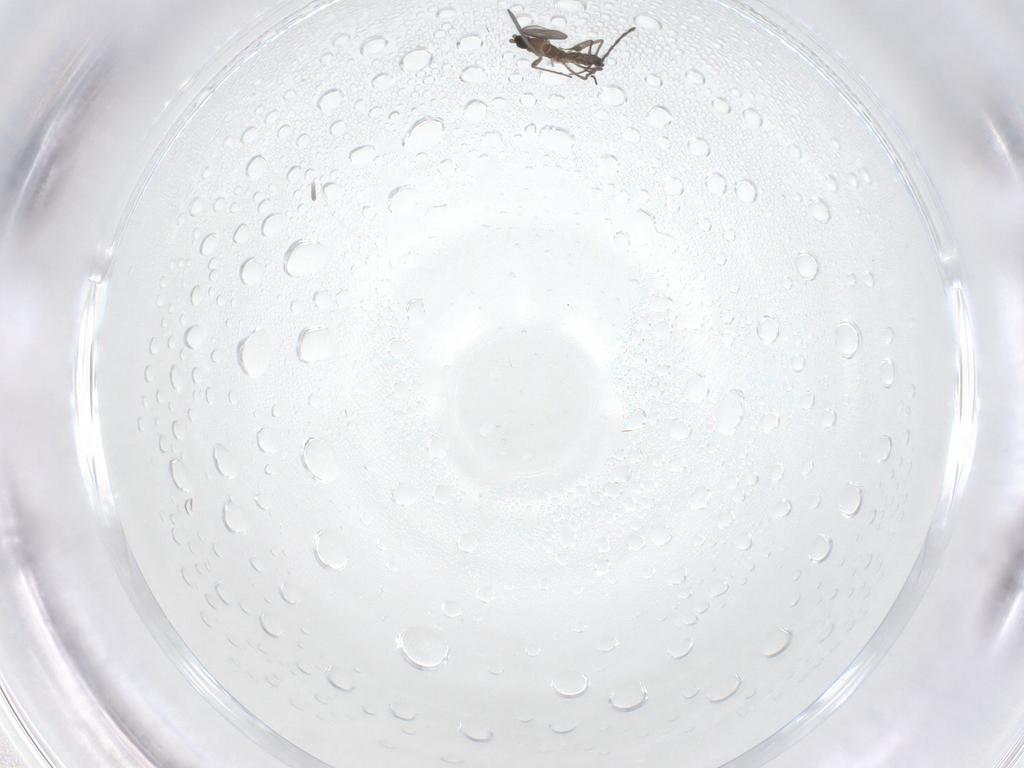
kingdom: Animalia
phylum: Arthropoda
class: Insecta
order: Diptera
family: Limoniidae
